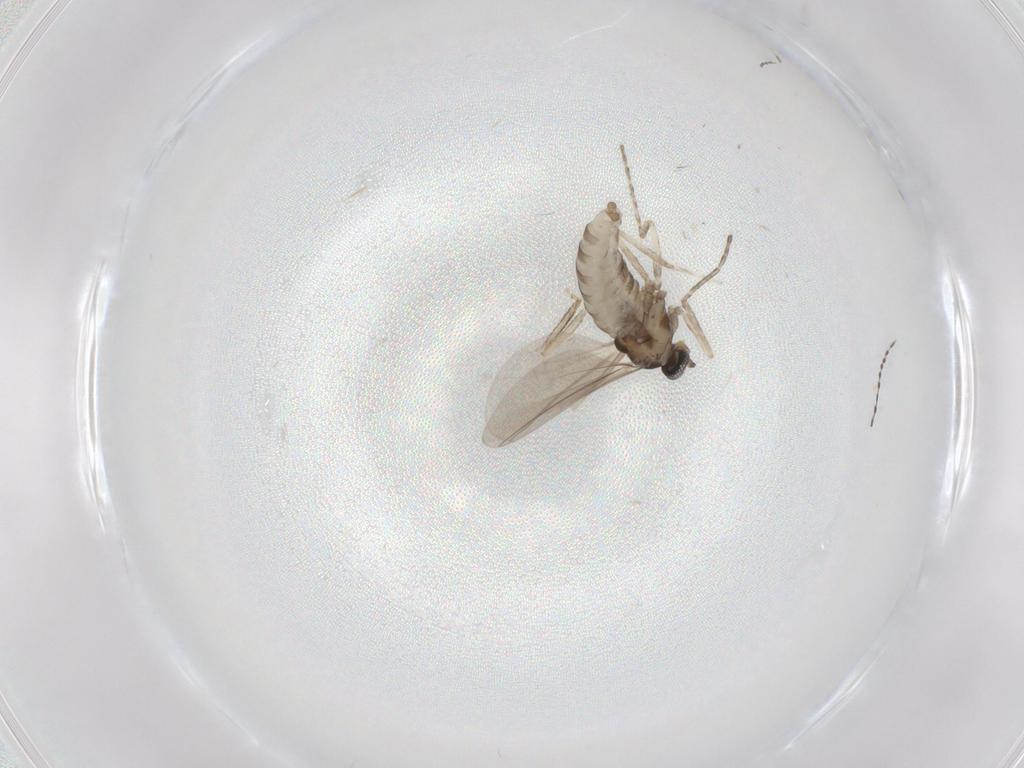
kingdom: Animalia
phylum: Arthropoda
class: Insecta
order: Diptera
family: Cecidomyiidae
